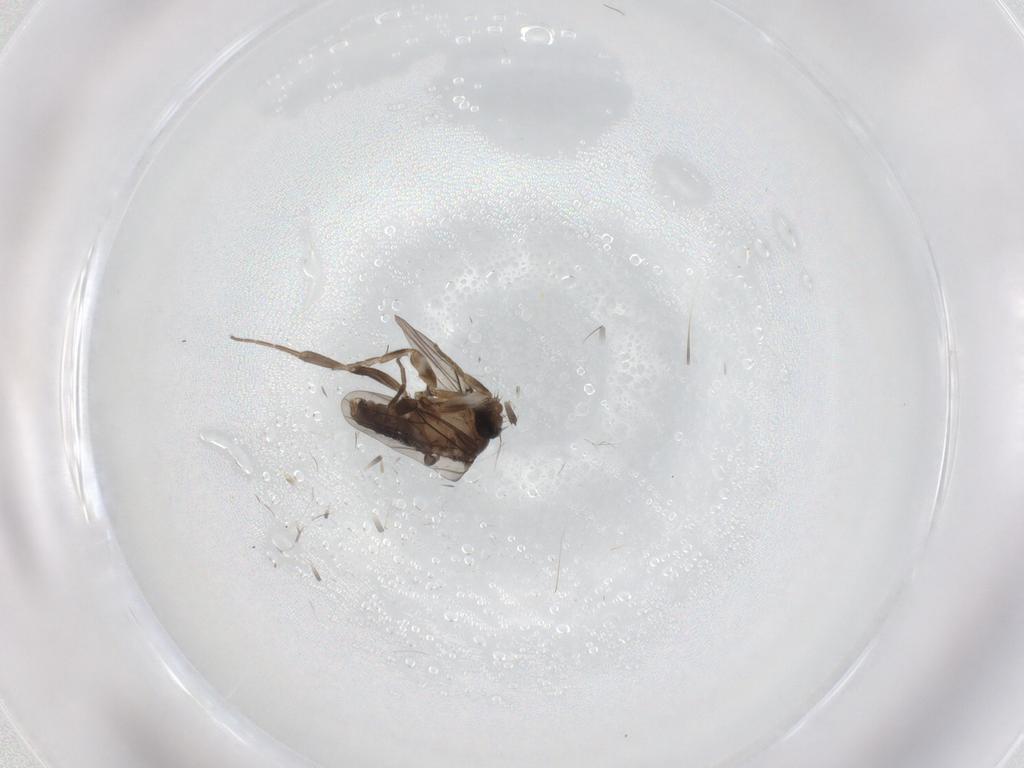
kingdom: Animalia
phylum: Arthropoda
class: Insecta
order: Diptera
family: Phoridae
